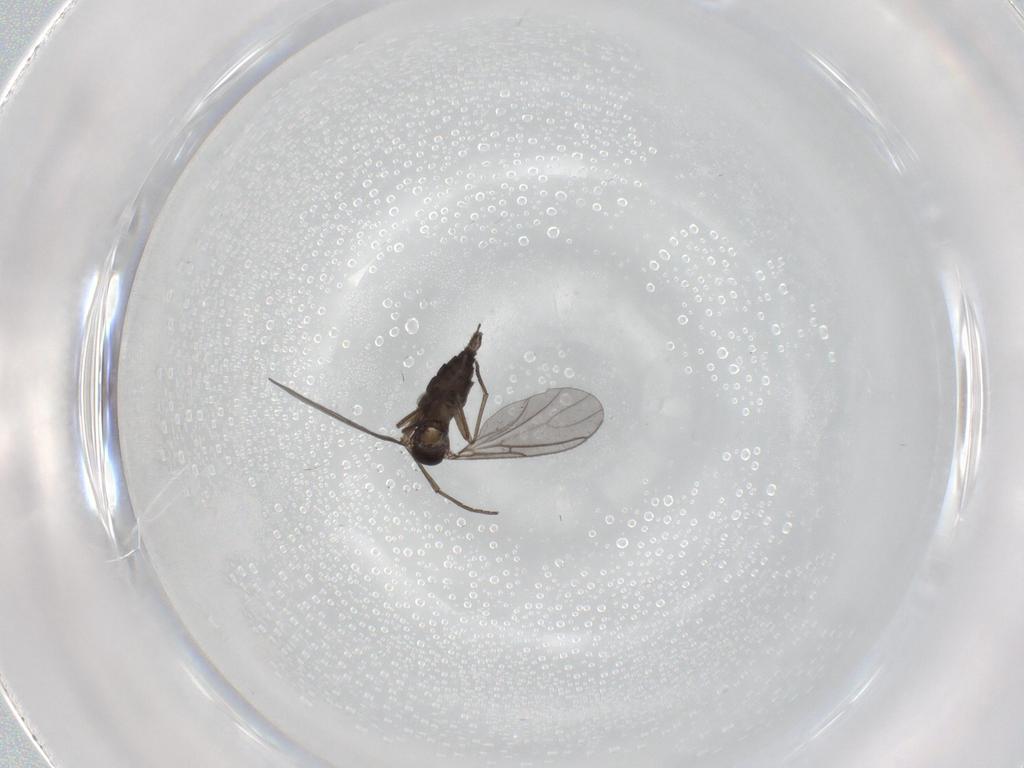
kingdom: Animalia
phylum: Arthropoda
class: Insecta
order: Diptera
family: Sciaridae
